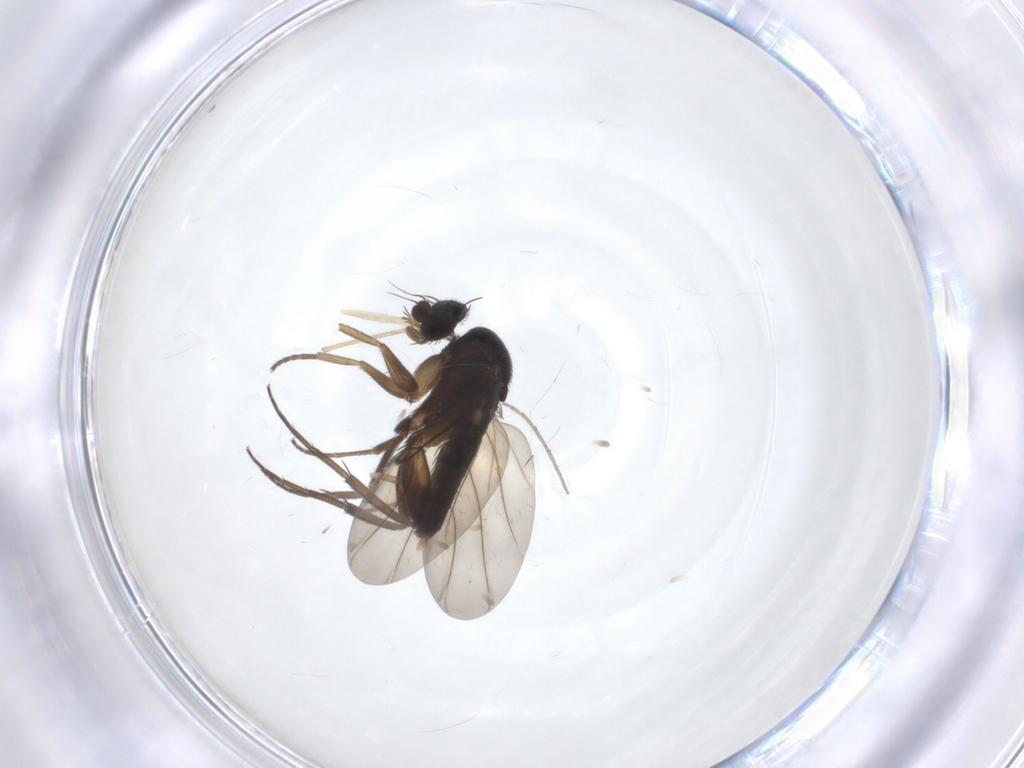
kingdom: Animalia
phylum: Arthropoda
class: Insecta
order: Diptera
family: Phoridae
